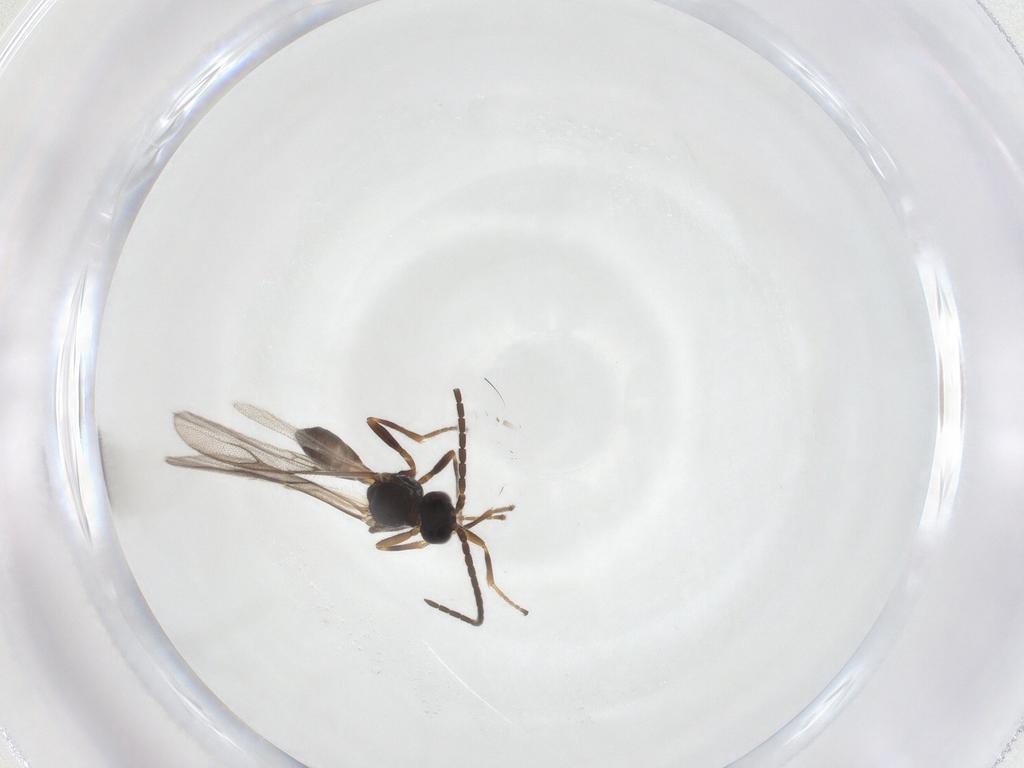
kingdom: Animalia
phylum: Arthropoda
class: Insecta
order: Hymenoptera
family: Braconidae
